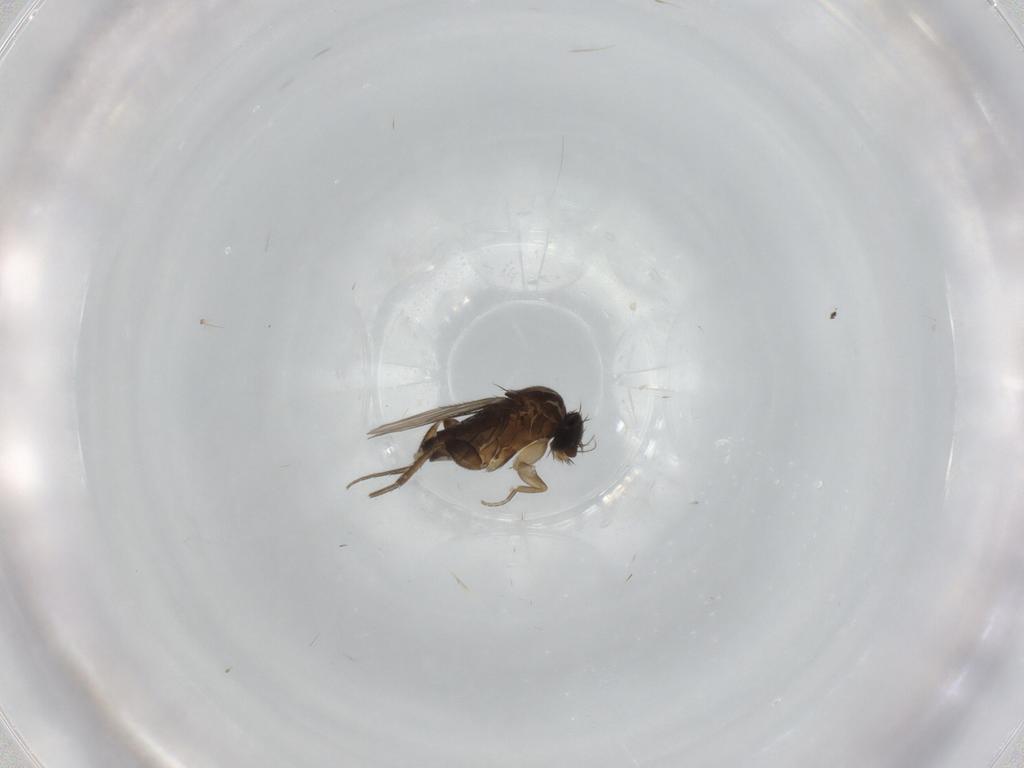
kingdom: Animalia
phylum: Arthropoda
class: Insecta
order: Diptera
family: Phoridae
